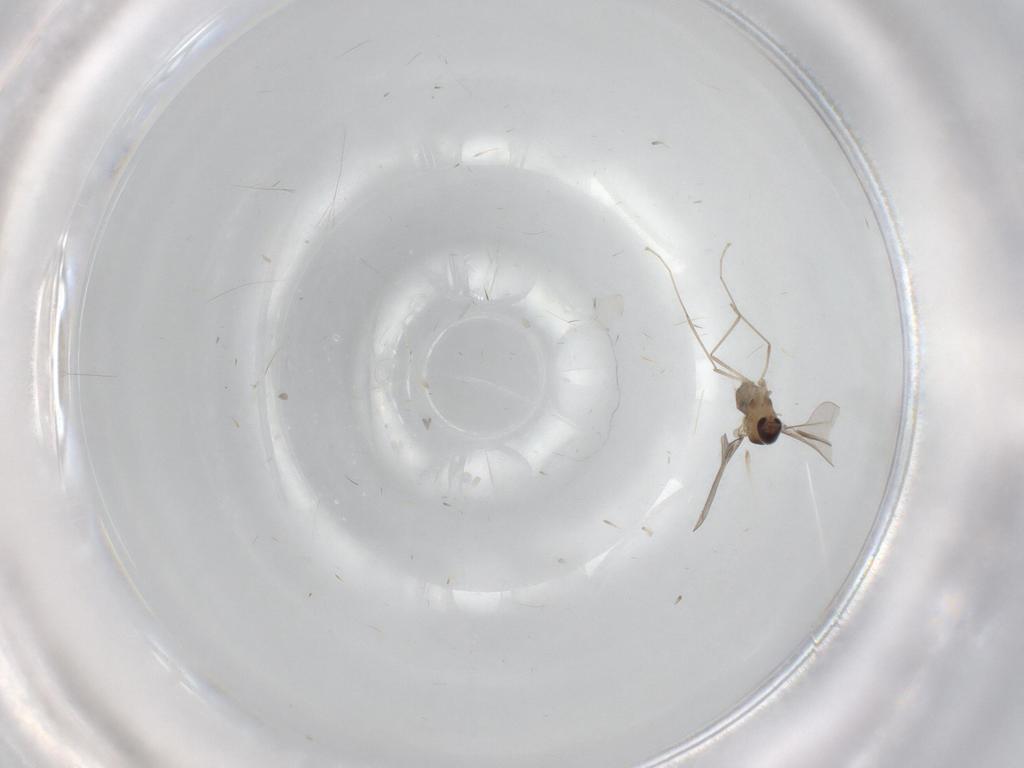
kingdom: Animalia
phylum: Arthropoda
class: Insecta
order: Diptera
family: Cecidomyiidae
